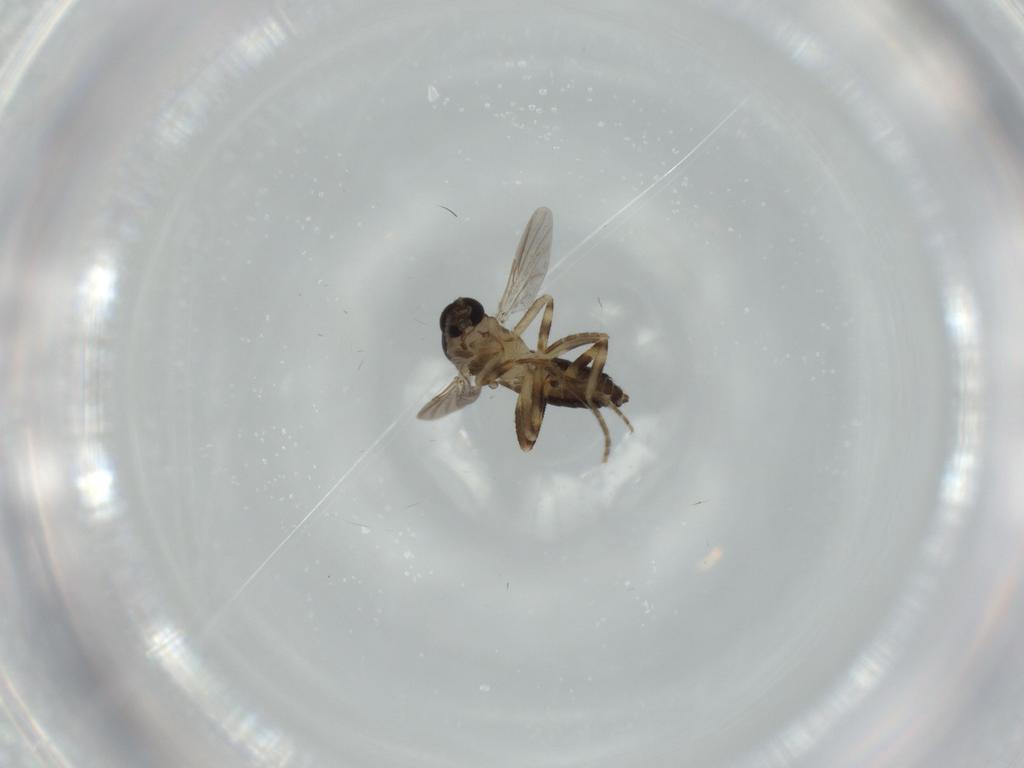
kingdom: Animalia
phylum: Arthropoda
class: Insecta
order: Diptera
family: Ceratopogonidae
